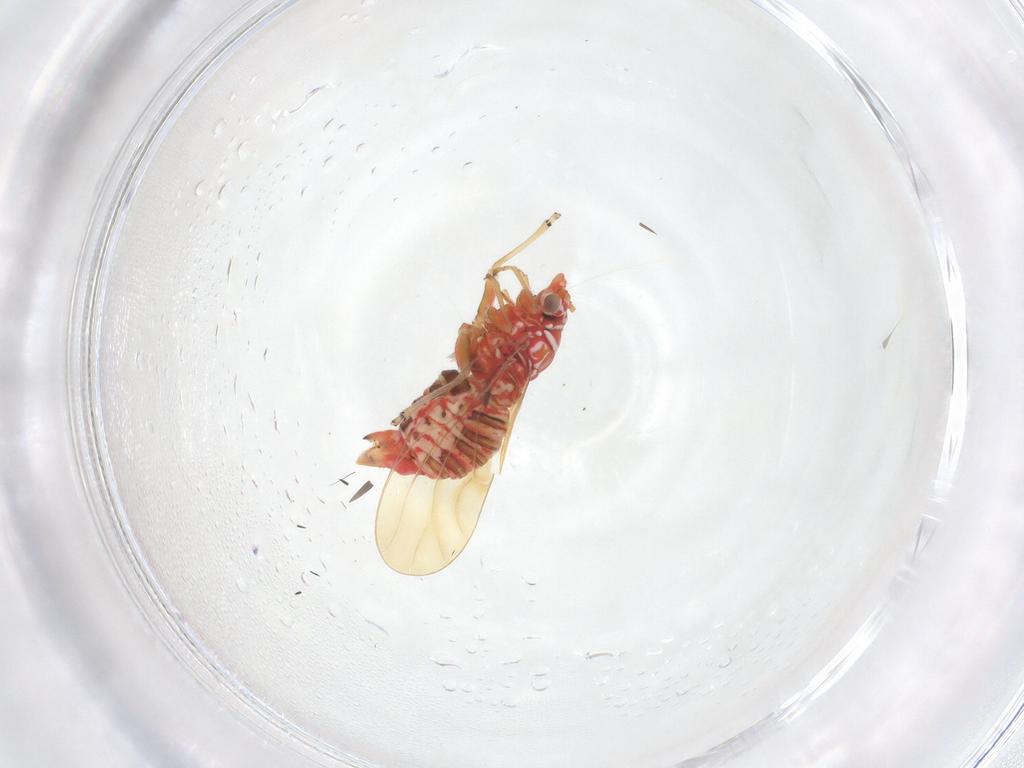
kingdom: Animalia
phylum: Arthropoda
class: Insecta
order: Hemiptera
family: Psyllidae
